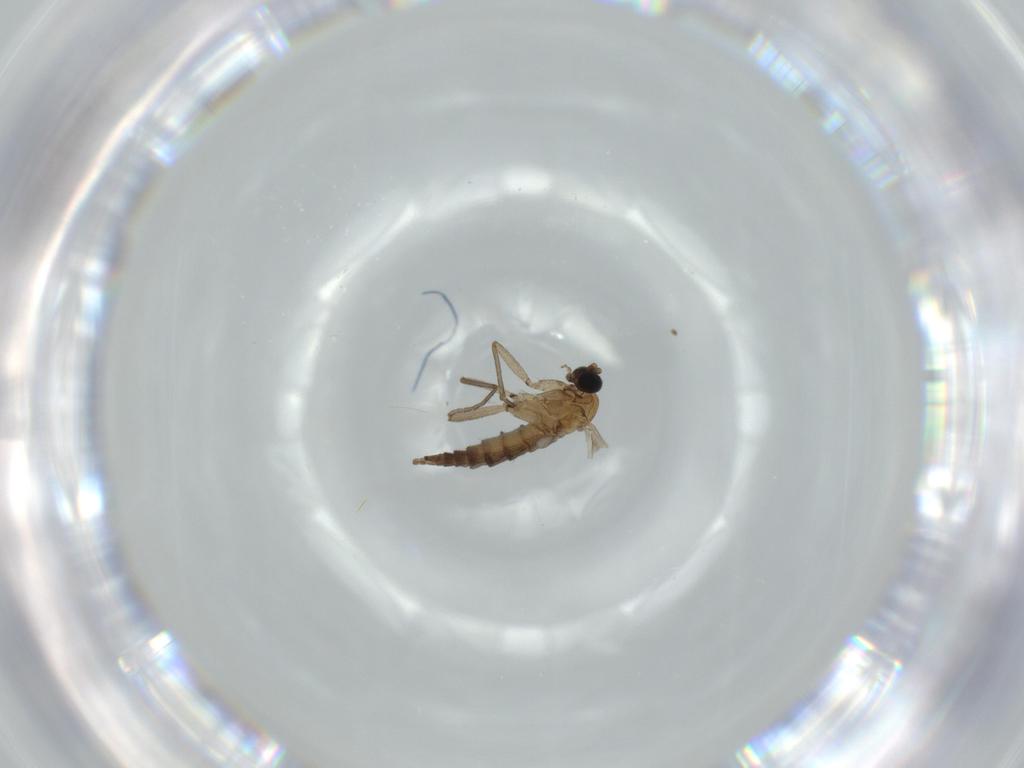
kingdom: Animalia
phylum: Arthropoda
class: Insecta
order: Diptera
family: Sciaridae
